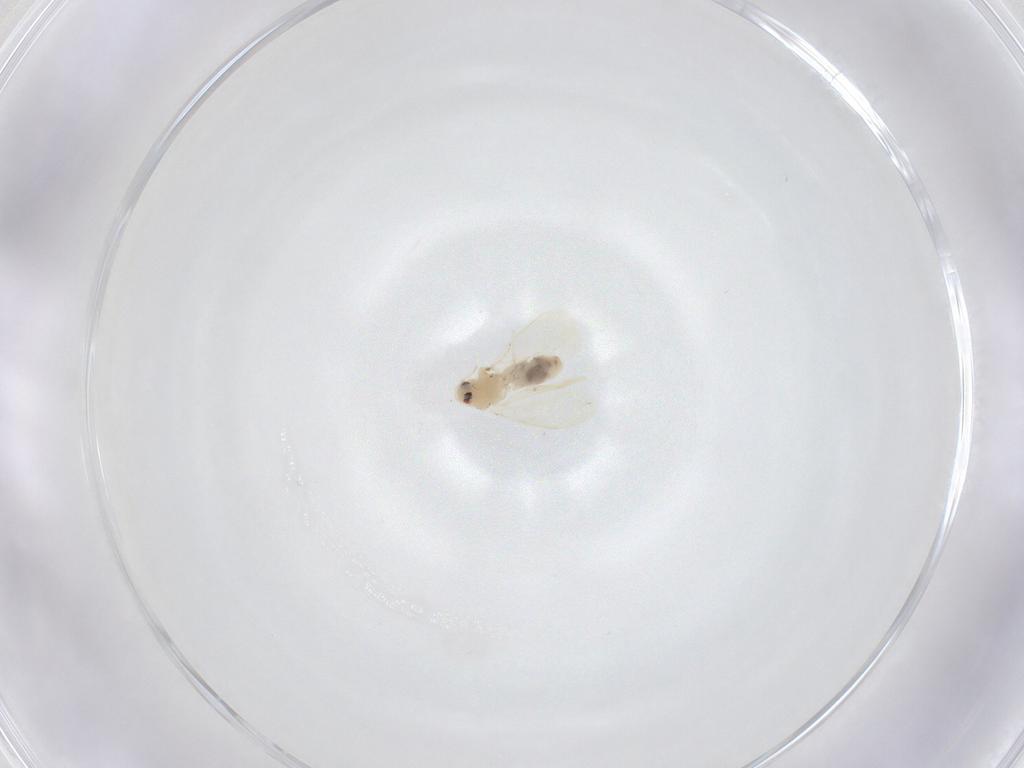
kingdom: Animalia
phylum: Arthropoda
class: Insecta
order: Hemiptera
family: Aleyrodidae
